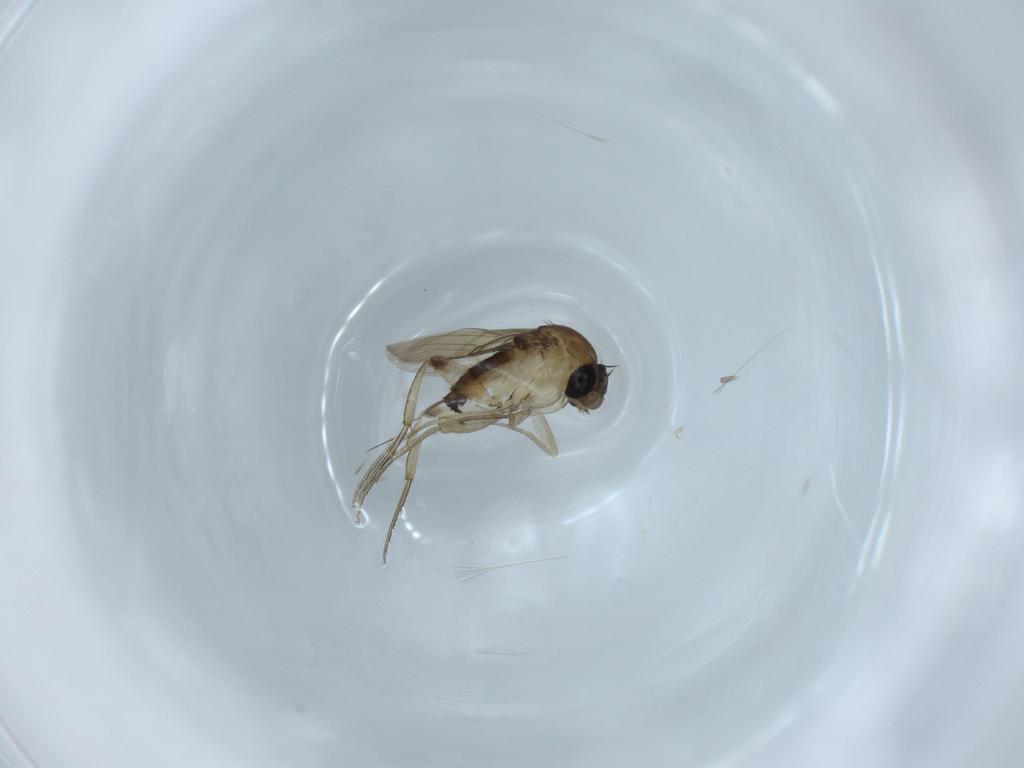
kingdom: Animalia
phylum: Arthropoda
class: Insecta
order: Diptera
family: Phoridae
